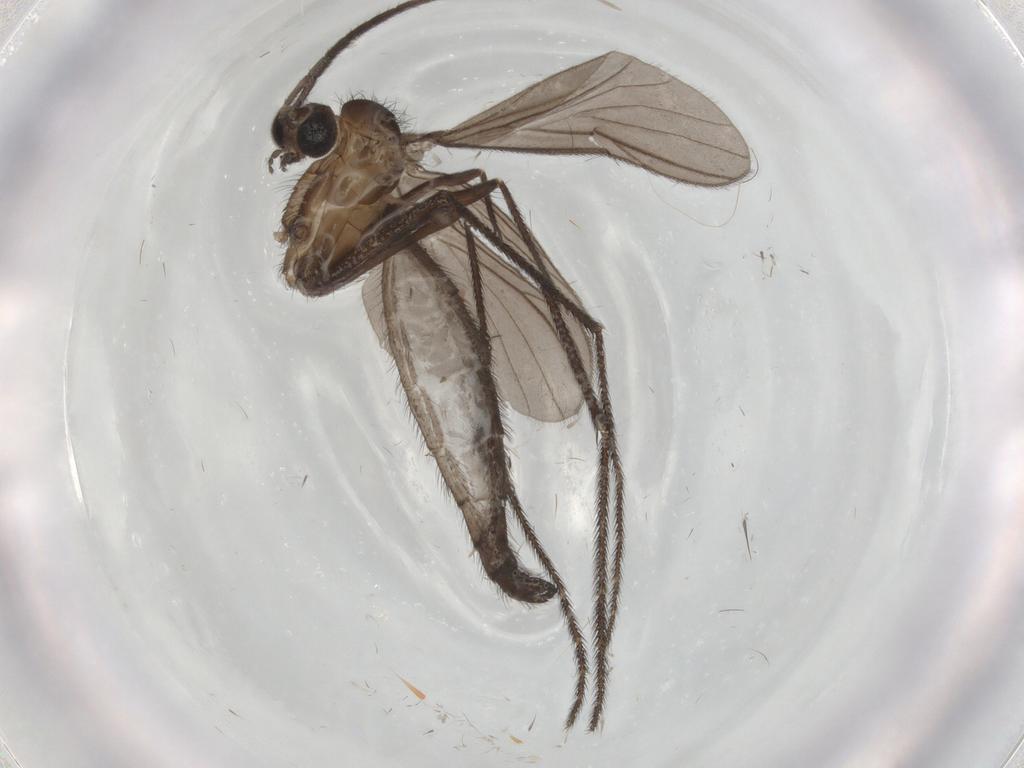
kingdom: Animalia
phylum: Arthropoda
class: Insecta
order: Diptera
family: Keroplatidae
